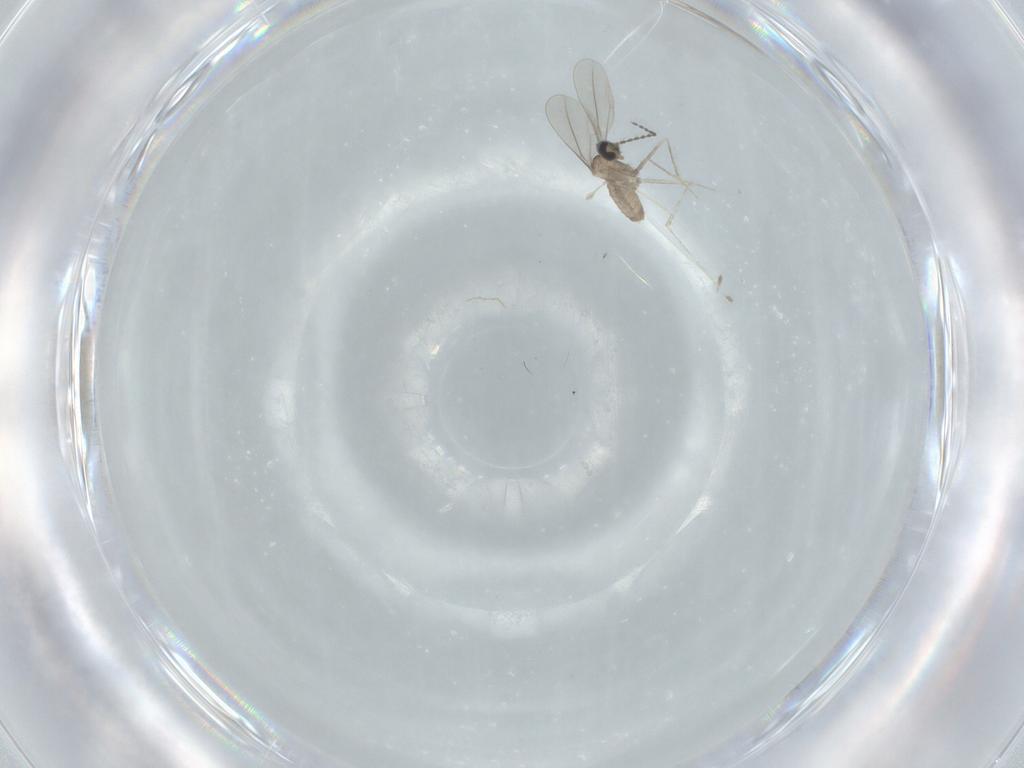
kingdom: Animalia
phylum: Arthropoda
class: Insecta
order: Diptera
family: Cecidomyiidae
